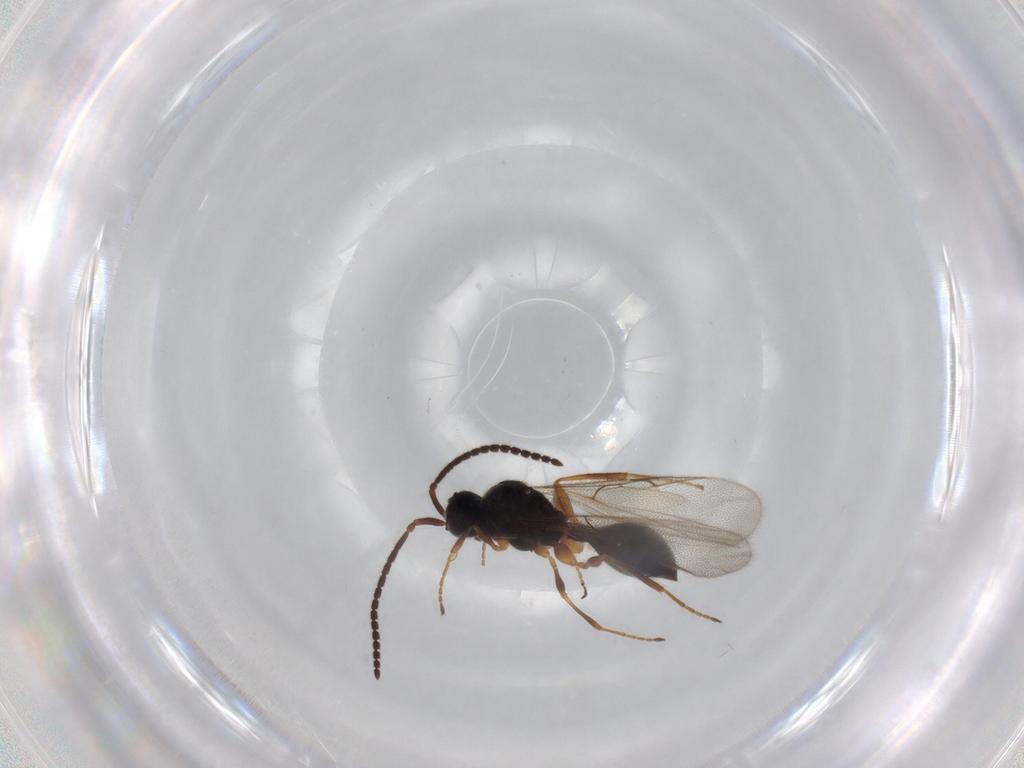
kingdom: Animalia
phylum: Arthropoda
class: Insecta
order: Hymenoptera
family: Diapriidae
